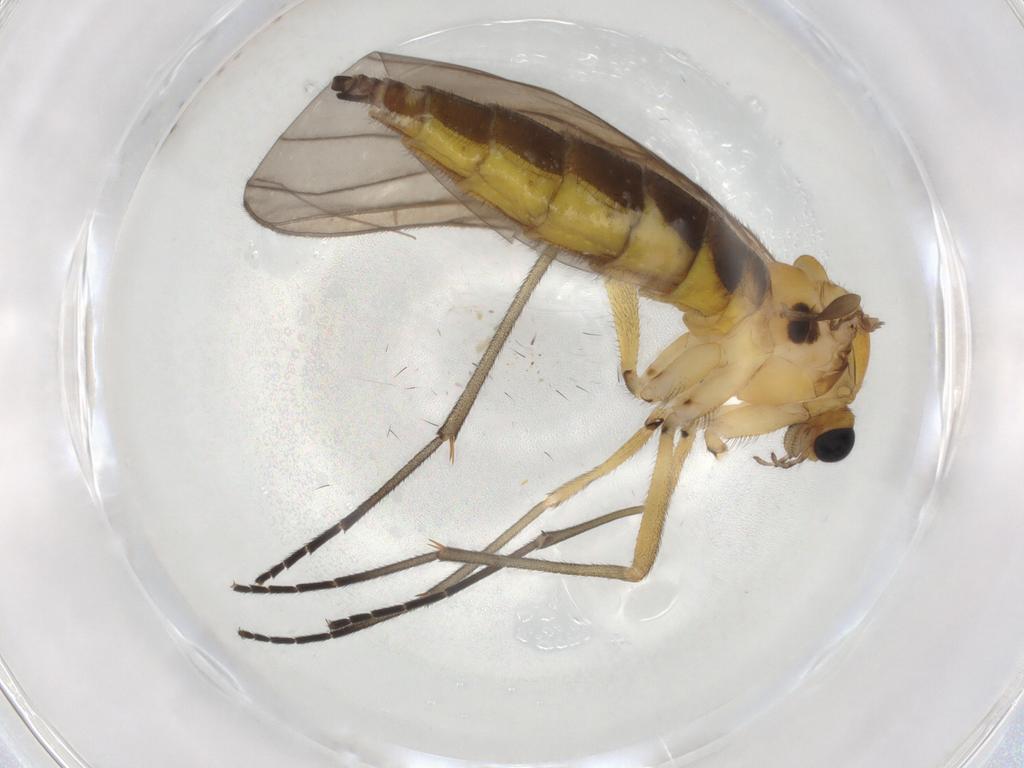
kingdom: Animalia
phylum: Arthropoda
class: Insecta
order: Diptera
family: Sciaridae
